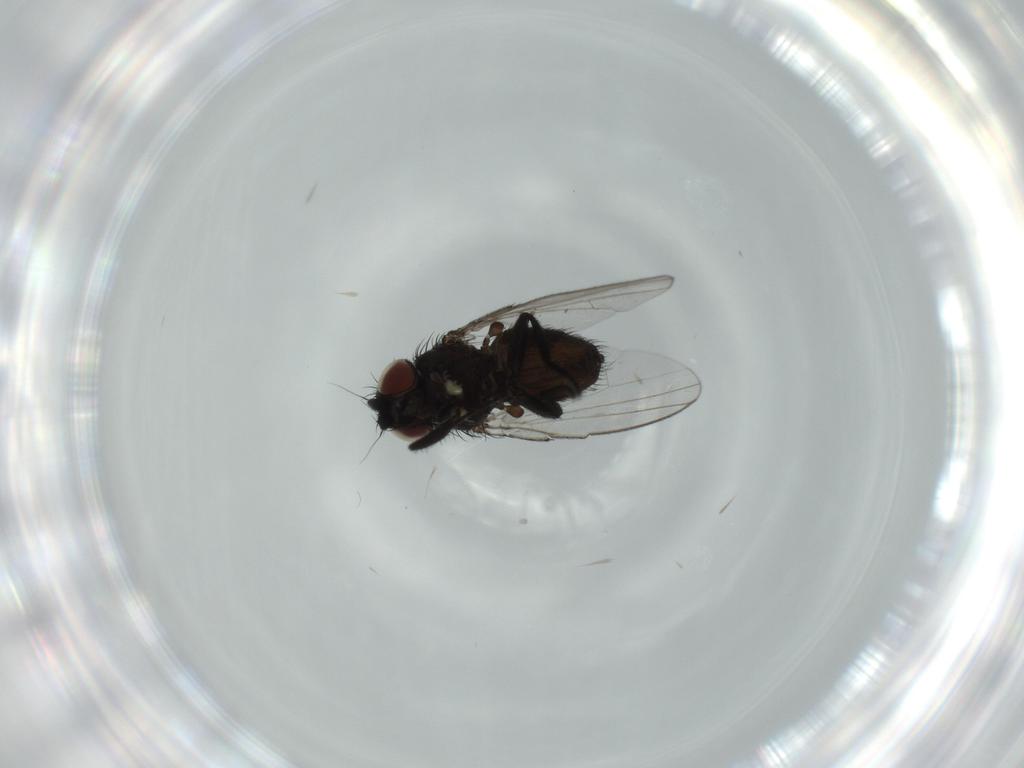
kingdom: Animalia
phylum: Arthropoda
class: Insecta
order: Diptera
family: Milichiidae
